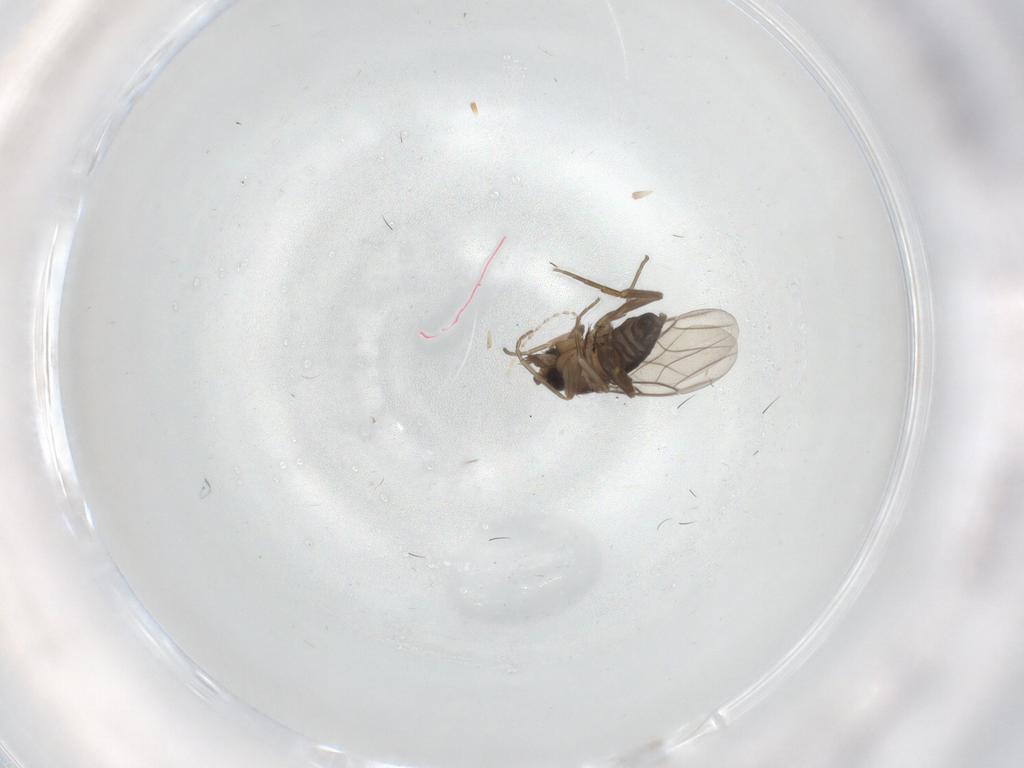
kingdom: Animalia
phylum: Arthropoda
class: Insecta
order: Diptera
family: Phoridae
